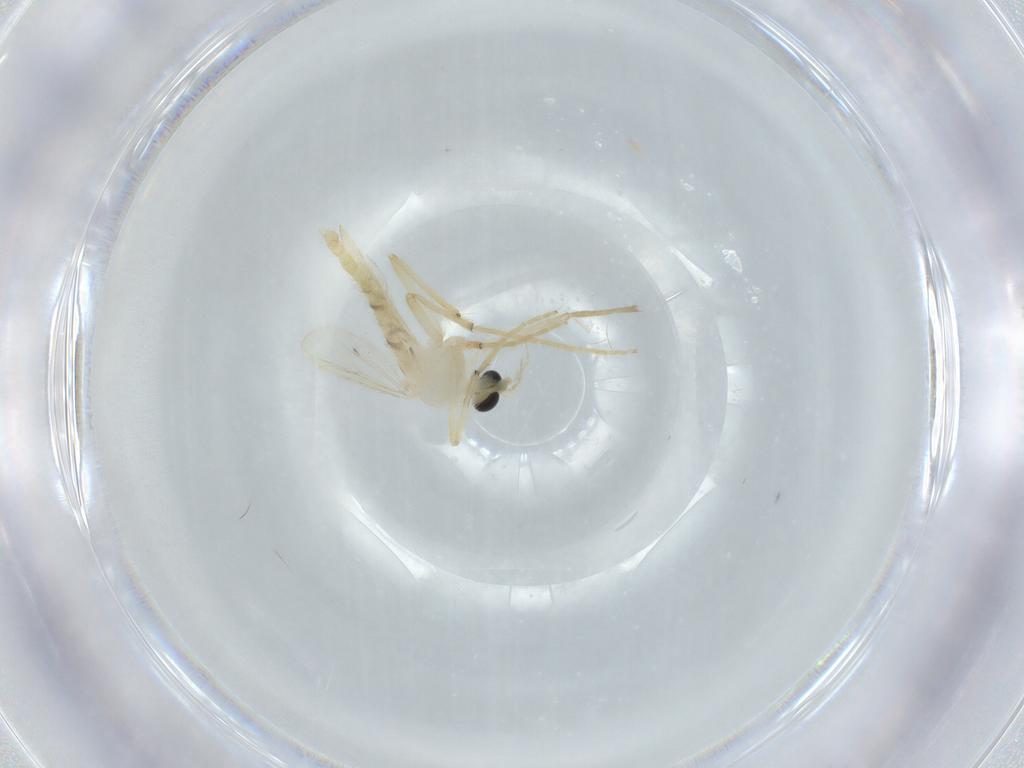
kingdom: Animalia
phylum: Arthropoda
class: Insecta
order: Diptera
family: Chironomidae
